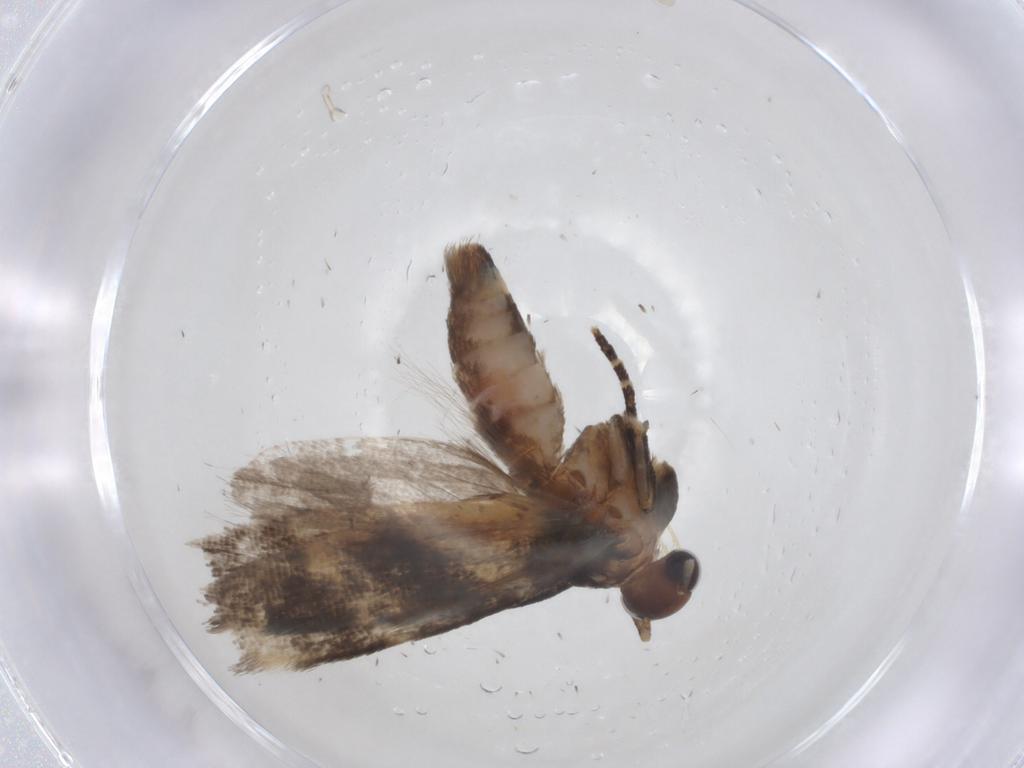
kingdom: Animalia
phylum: Arthropoda
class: Insecta
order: Lepidoptera
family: Gelechiidae
